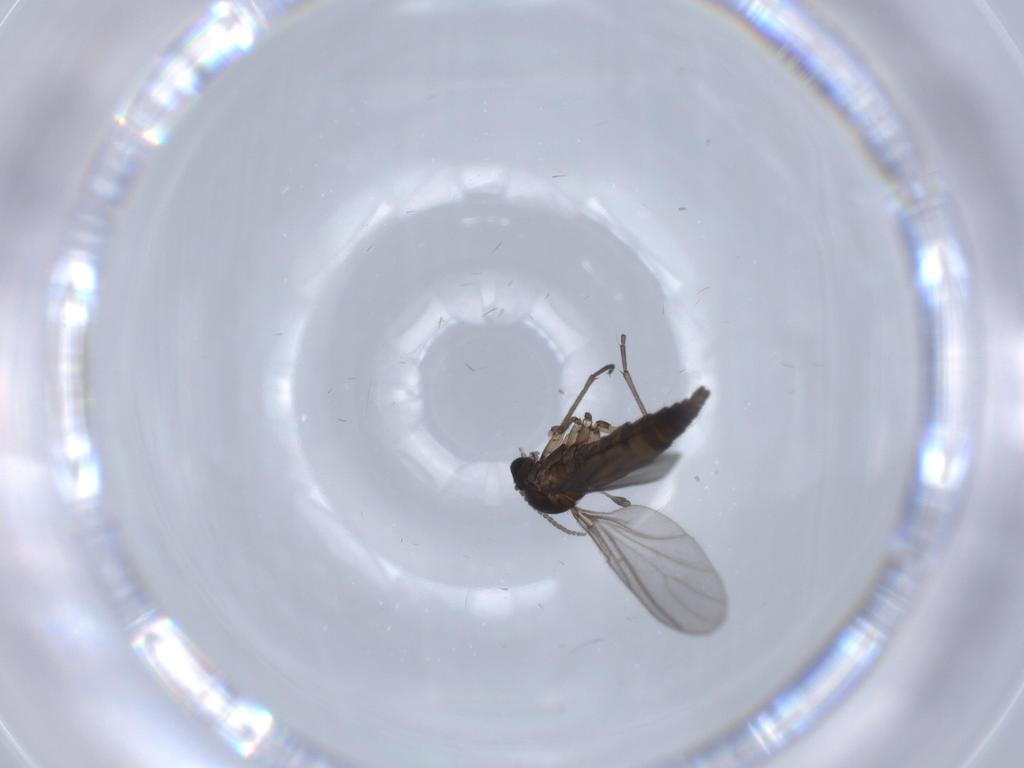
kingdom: Animalia
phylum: Arthropoda
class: Insecta
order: Diptera
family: Sciaridae
